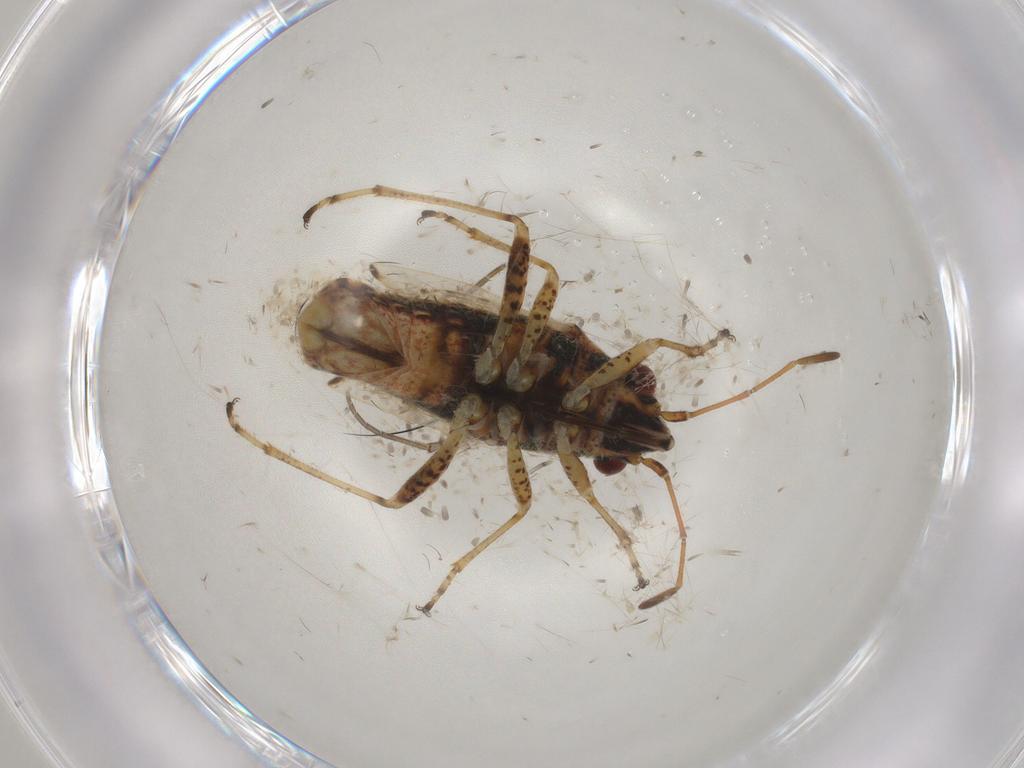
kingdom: Animalia
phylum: Arthropoda
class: Insecta
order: Hemiptera
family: Lygaeidae
